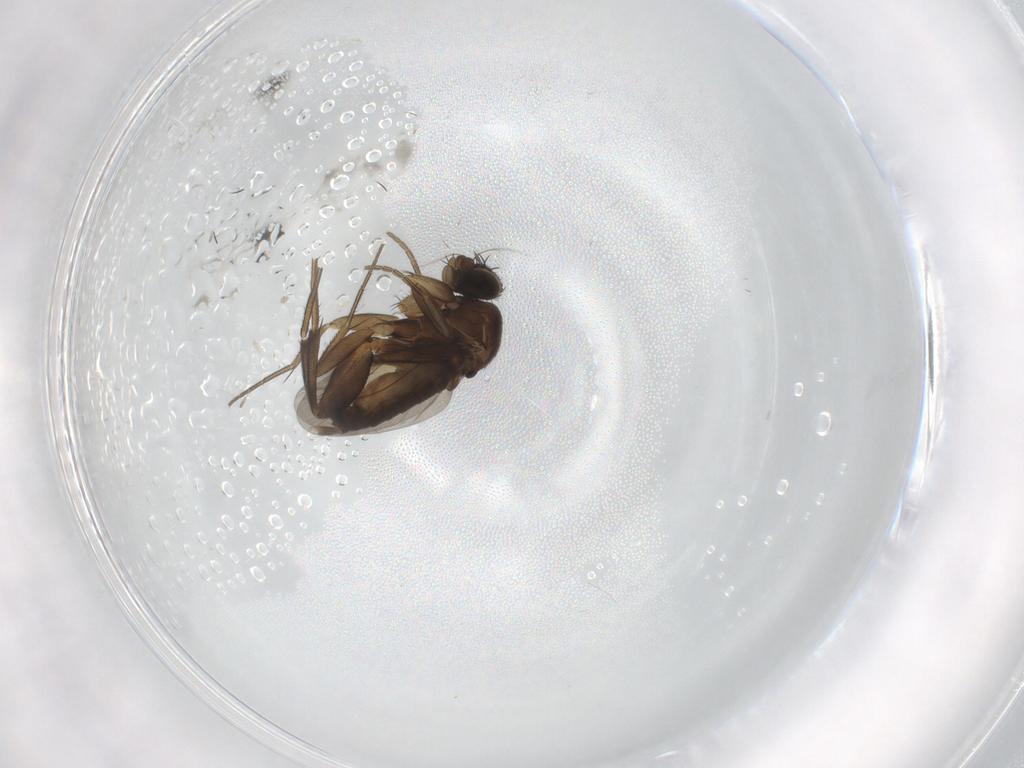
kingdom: Animalia
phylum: Arthropoda
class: Insecta
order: Diptera
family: Phoridae
